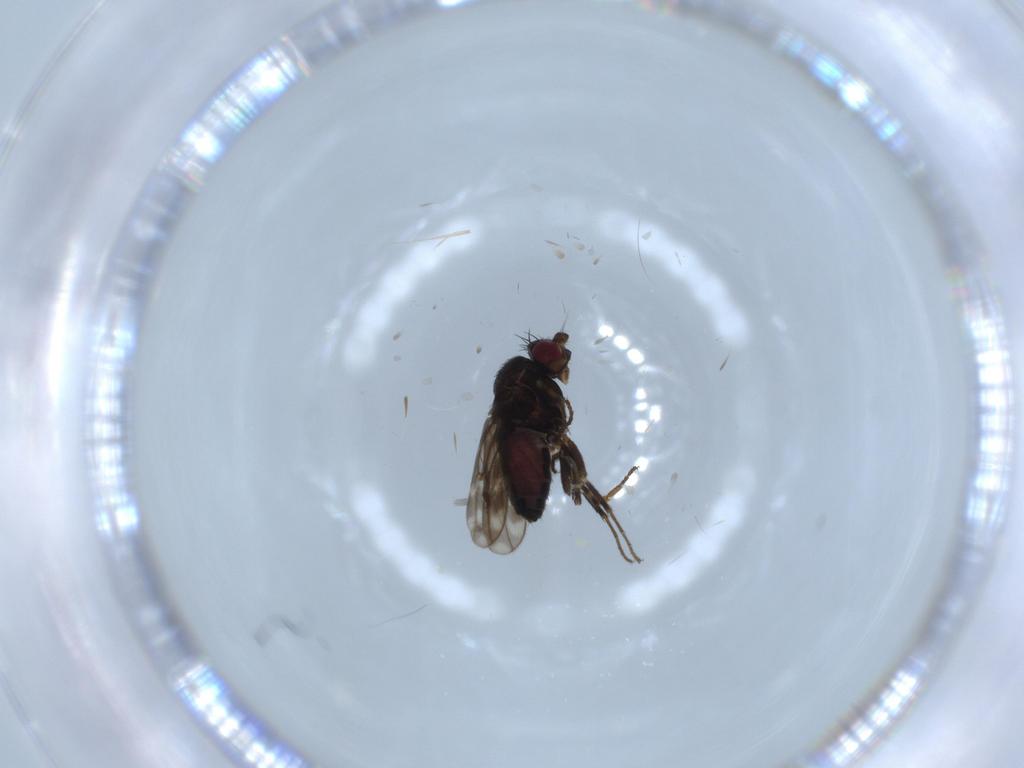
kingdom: Animalia
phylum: Arthropoda
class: Insecta
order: Diptera
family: Sphaeroceridae
